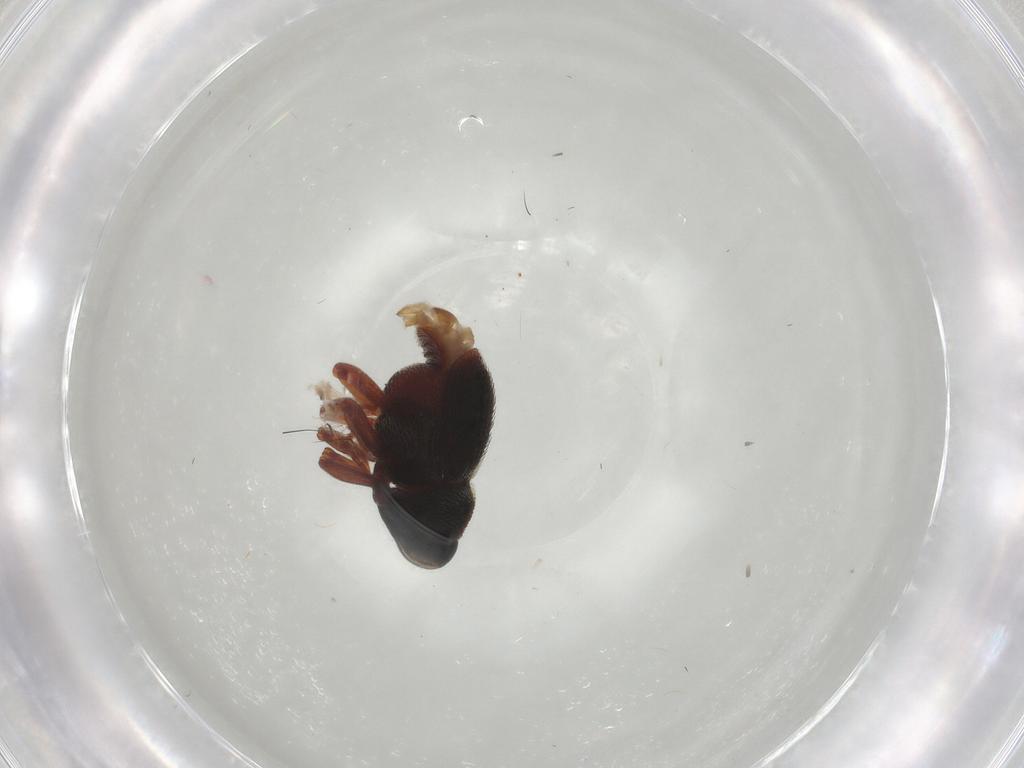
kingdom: Animalia
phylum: Arthropoda
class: Insecta
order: Coleoptera
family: Curculionidae
